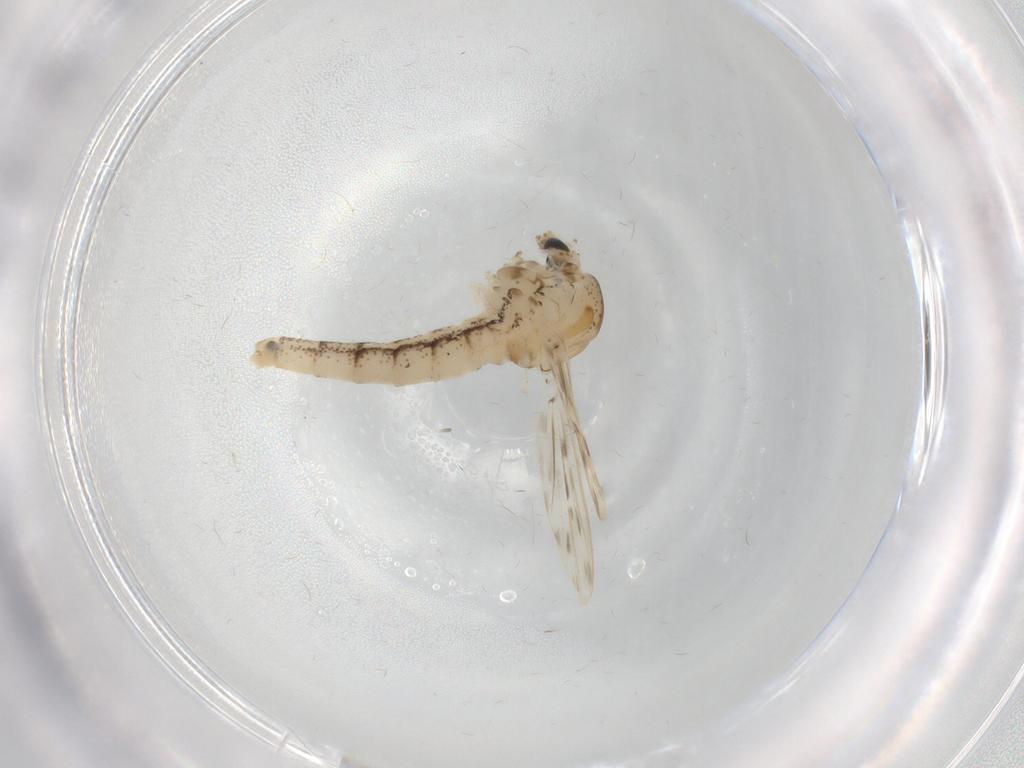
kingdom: Animalia
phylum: Arthropoda
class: Insecta
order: Diptera
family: Chaoboridae
